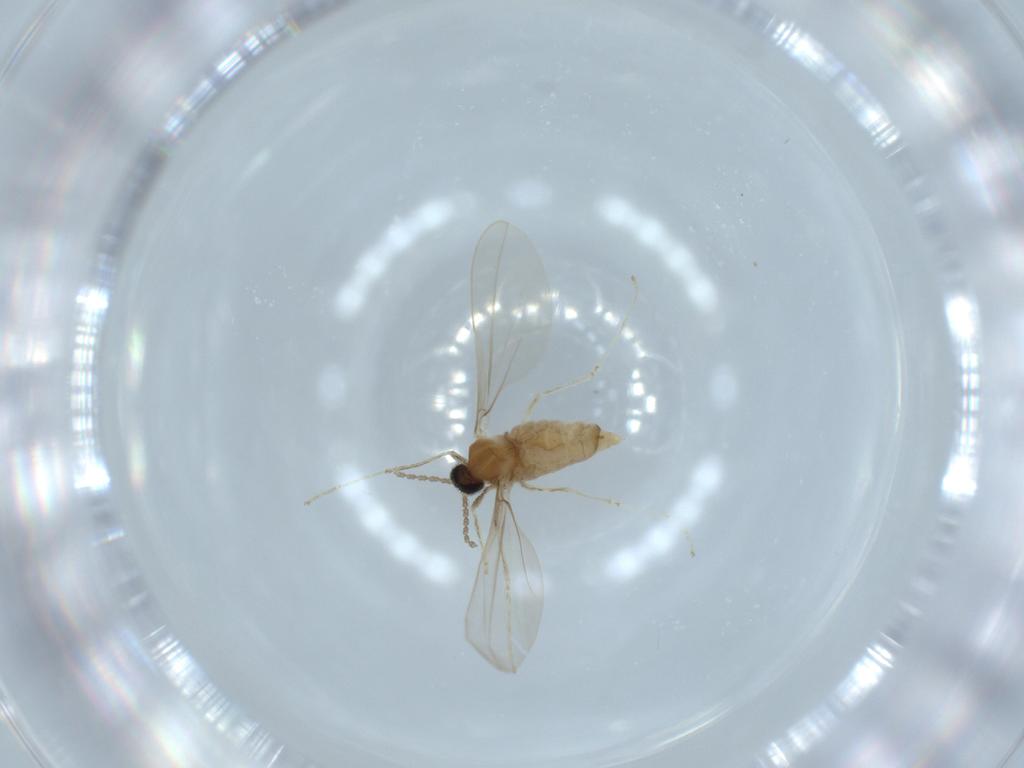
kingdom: Animalia
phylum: Arthropoda
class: Insecta
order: Diptera
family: Cecidomyiidae
